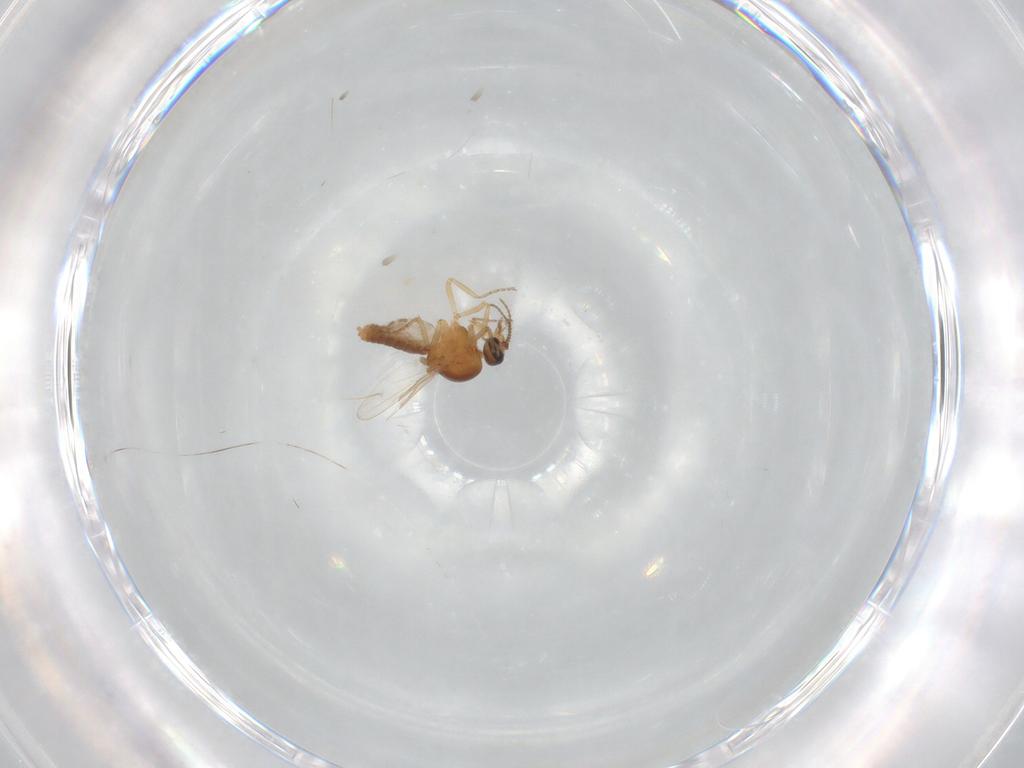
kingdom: Animalia
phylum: Arthropoda
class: Insecta
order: Diptera
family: Ceratopogonidae
